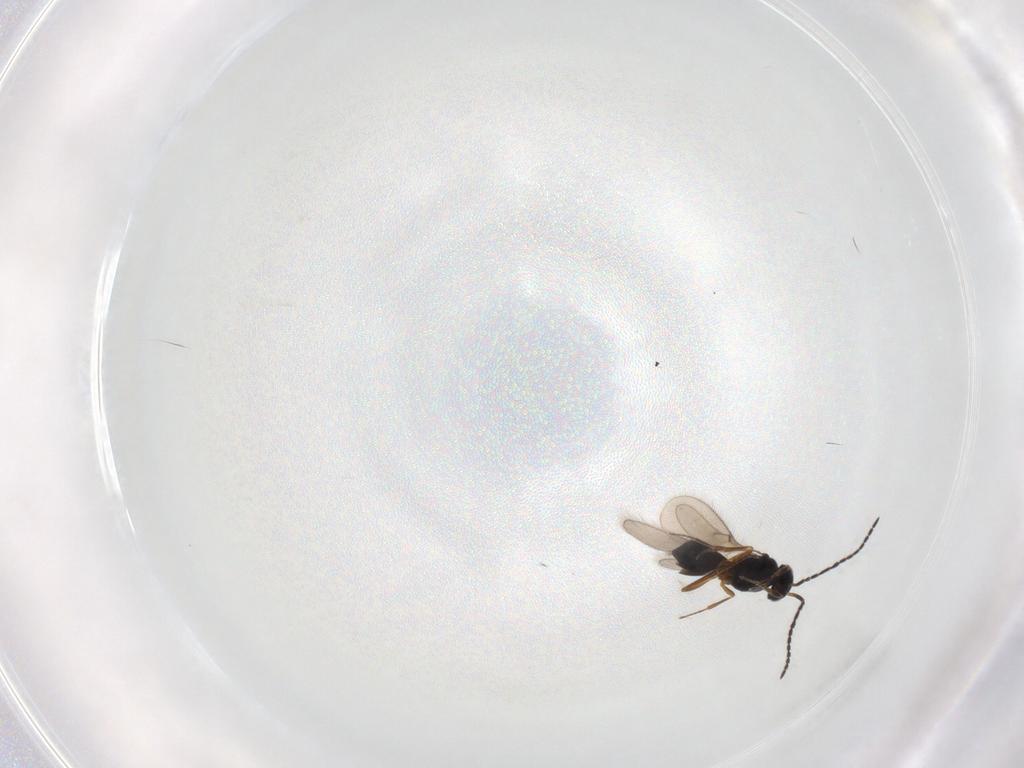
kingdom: Animalia
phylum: Arthropoda
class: Insecta
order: Hymenoptera
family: Scelionidae
